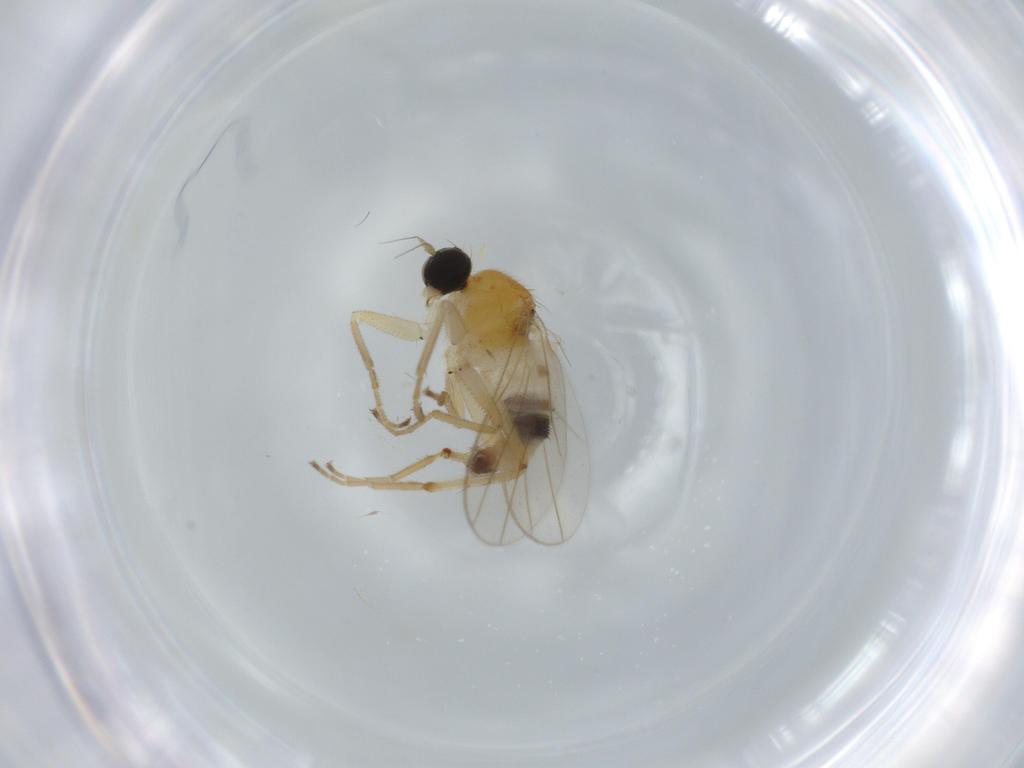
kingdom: Animalia
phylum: Arthropoda
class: Insecta
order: Diptera
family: Hybotidae
